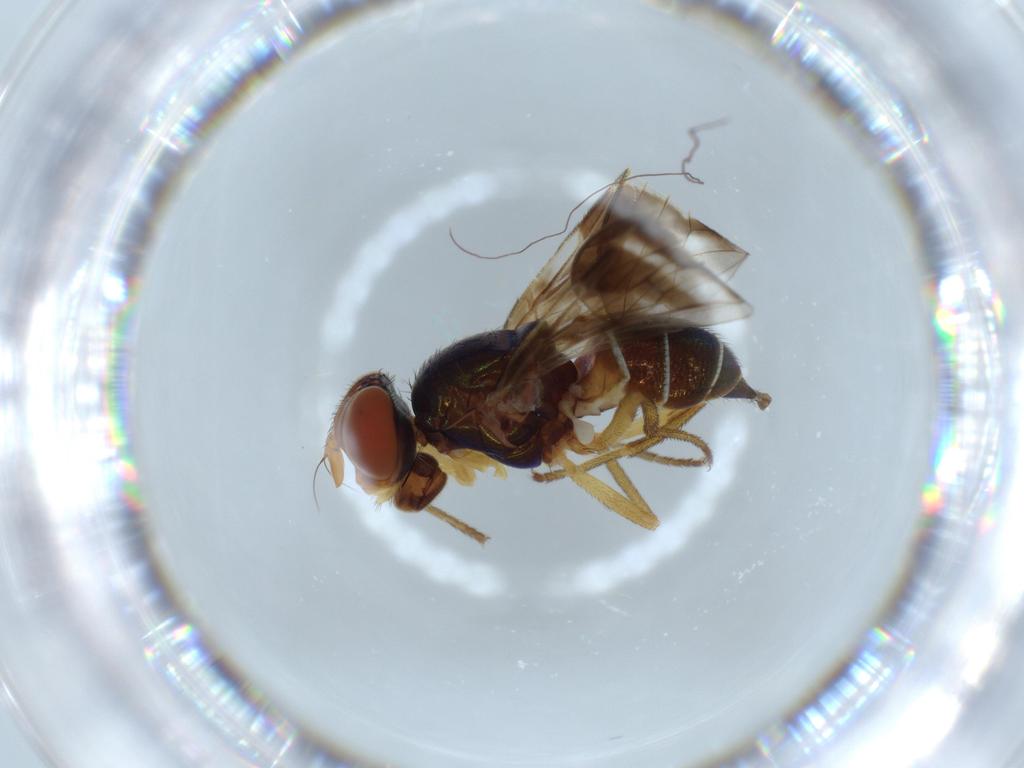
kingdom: Animalia
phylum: Arthropoda
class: Insecta
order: Diptera
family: Platystomatidae
